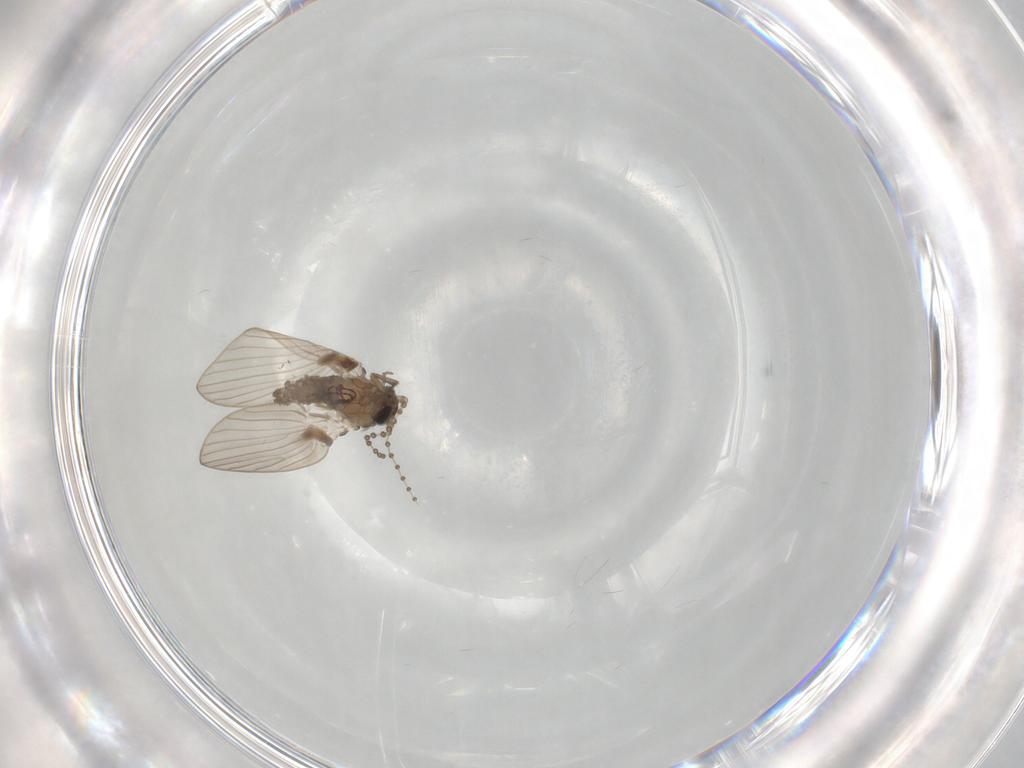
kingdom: Animalia
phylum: Arthropoda
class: Insecta
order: Diptera
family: Psychodidae
